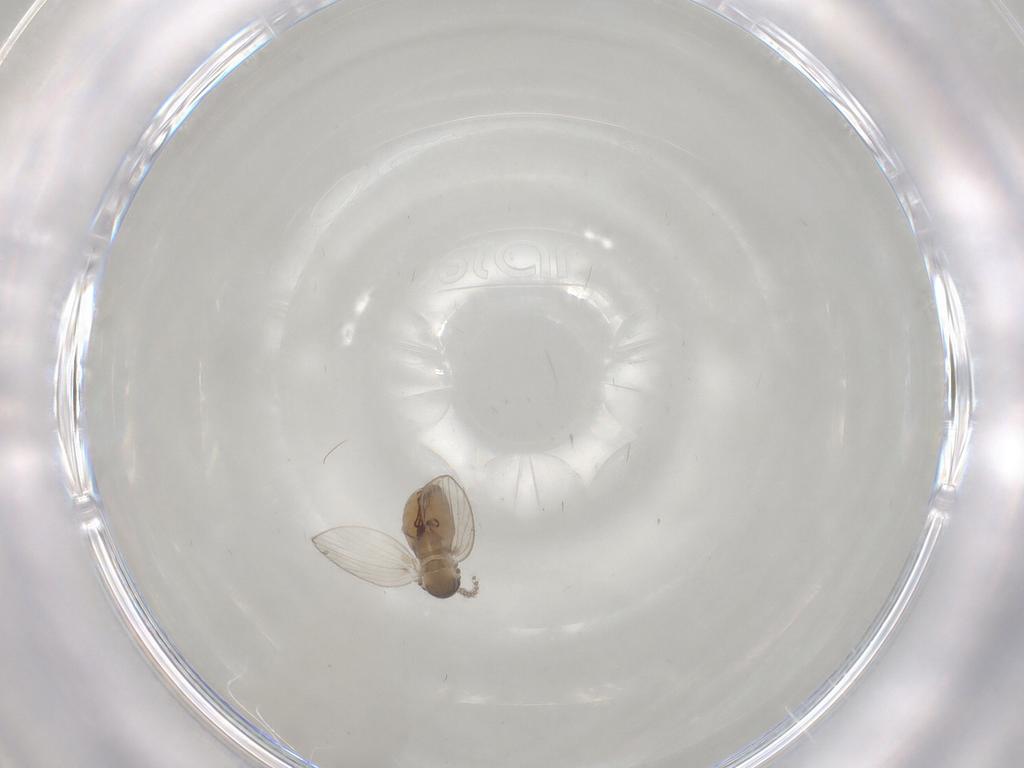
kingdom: Animalia
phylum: Arthropoda
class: Insecta
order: Diptera
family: Psychodidae
